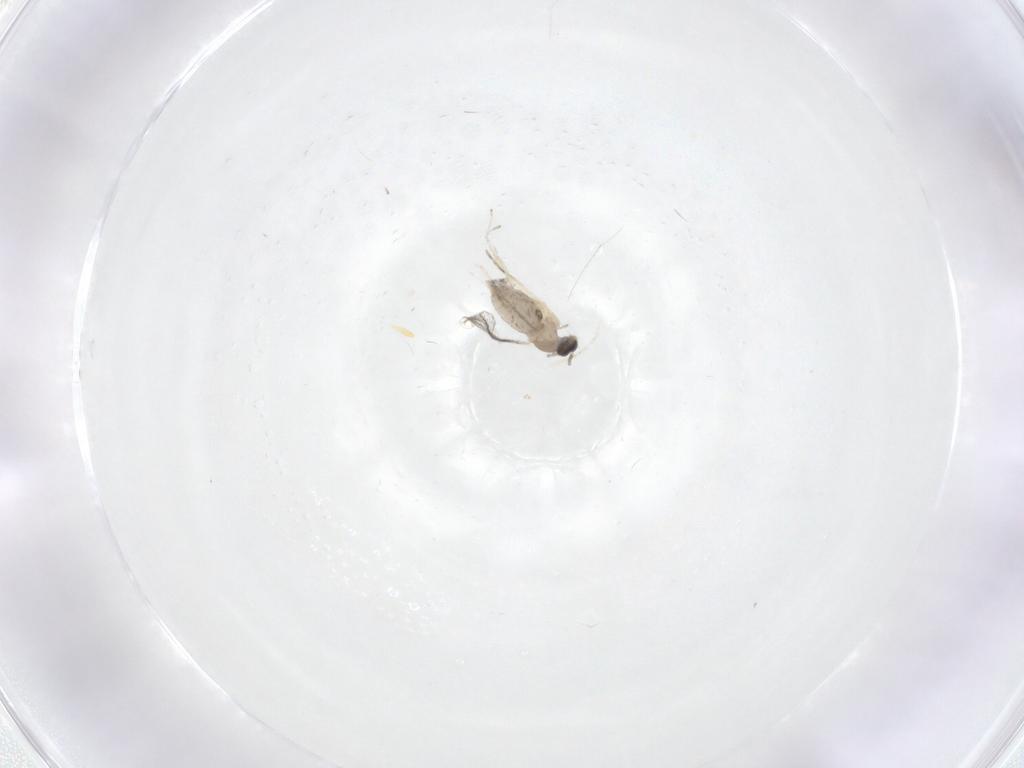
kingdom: Animalia
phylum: Arthropoda
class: Insecta
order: Diptera
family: Cecidomyiidae
